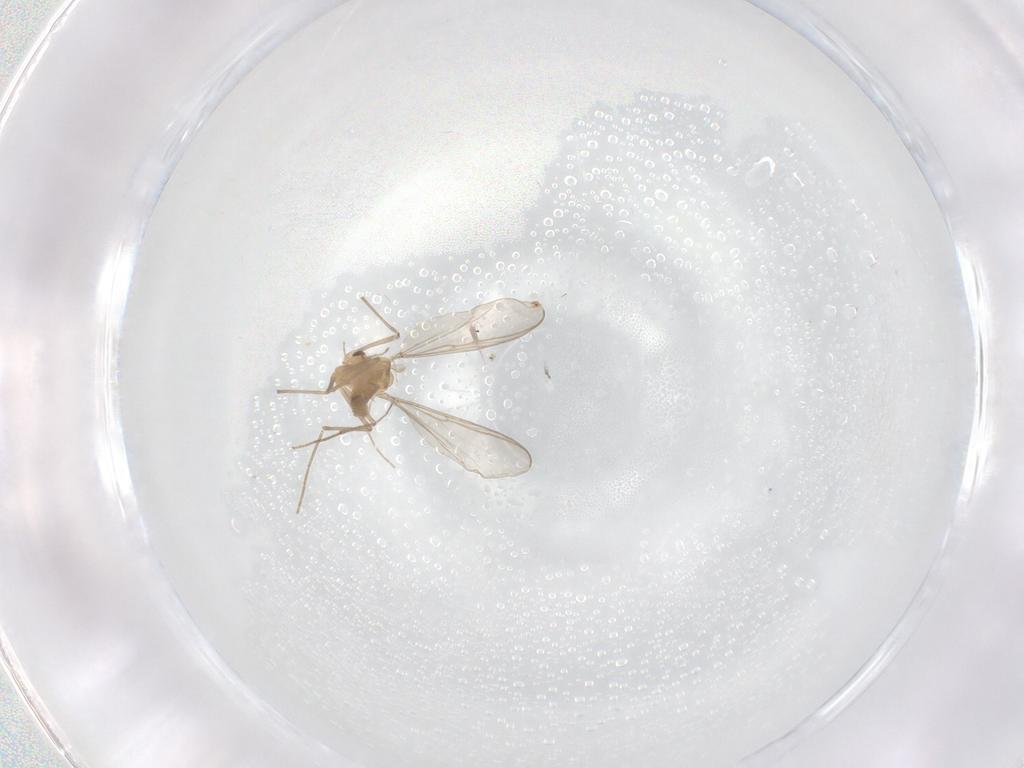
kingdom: Animalia
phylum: Arthropoda
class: Insecta
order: Diptera
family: Chironomidae
